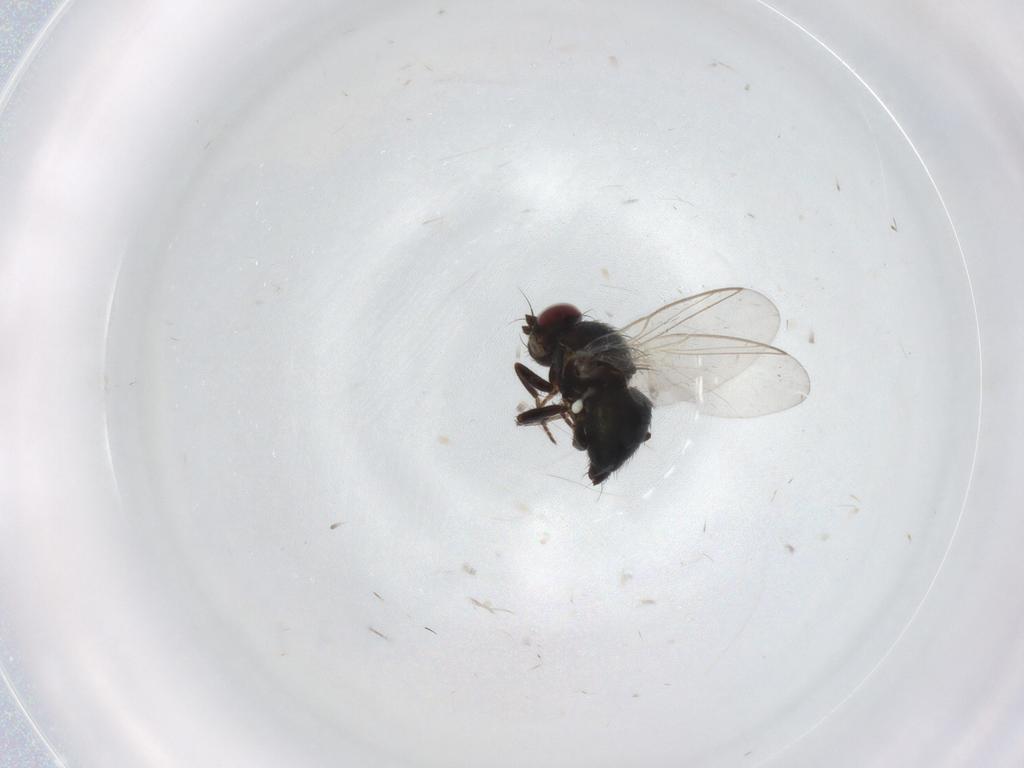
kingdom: Animalia
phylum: Arthropoda
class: Insecta
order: Diptera
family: Agromyzidae
